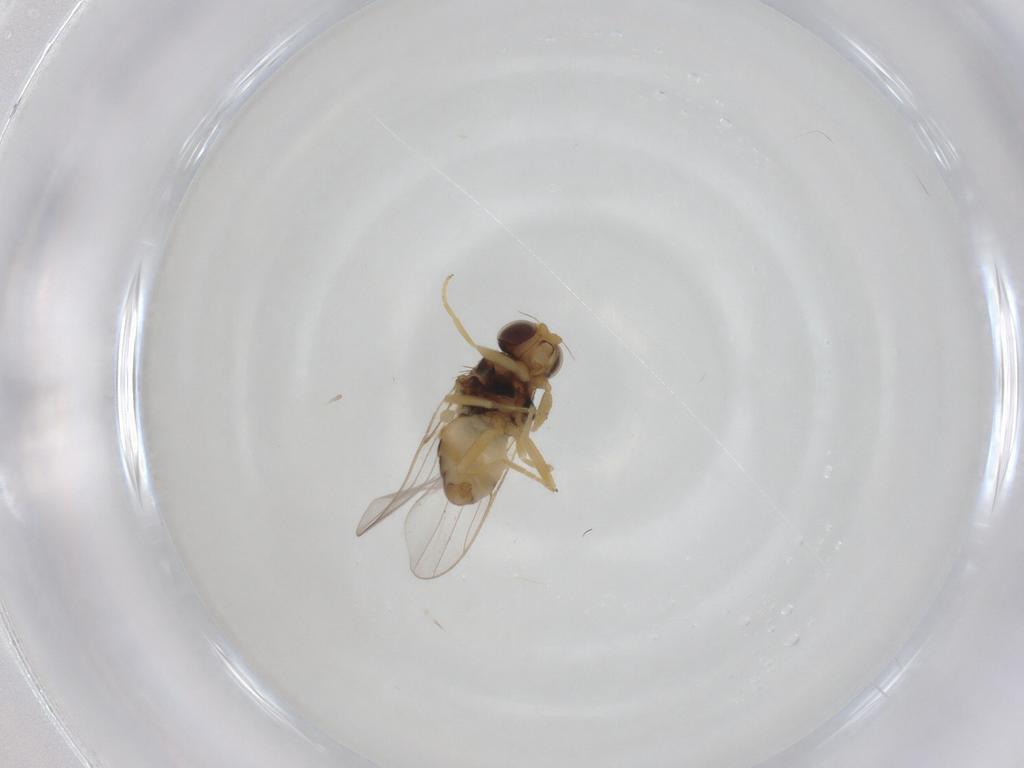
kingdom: Animalia
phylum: Arthropoda
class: Insecta
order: Diptera
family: Chloropidae
